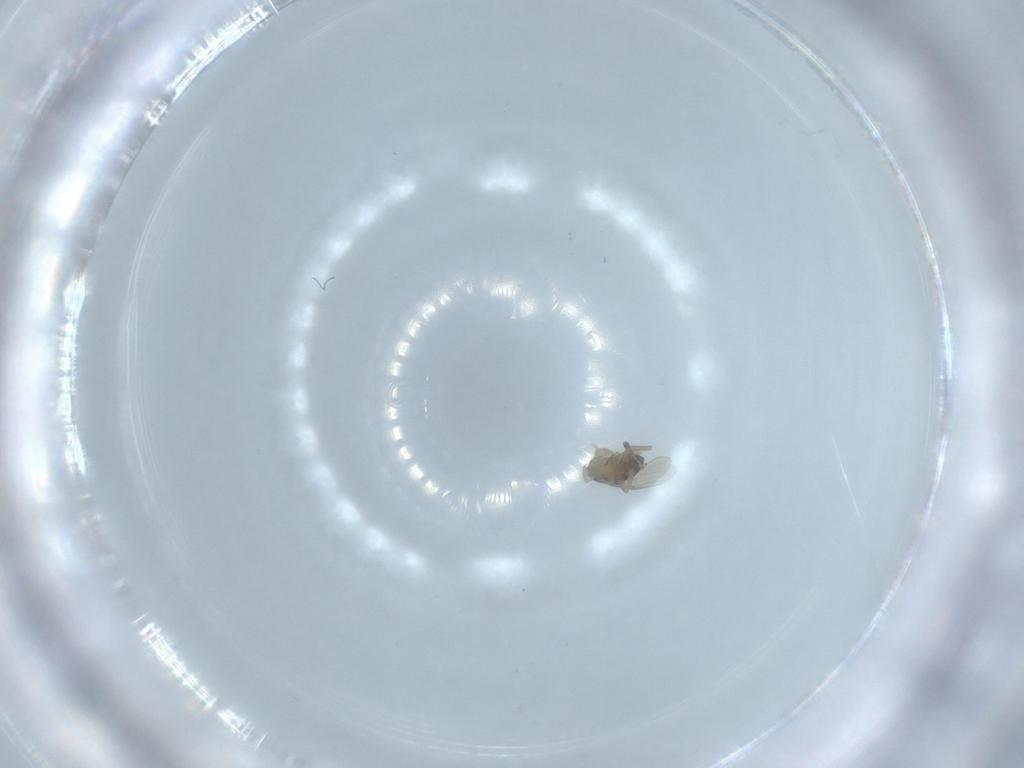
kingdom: Animalia
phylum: Arthropoda
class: Insecta
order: Diptera
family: Phoridae
